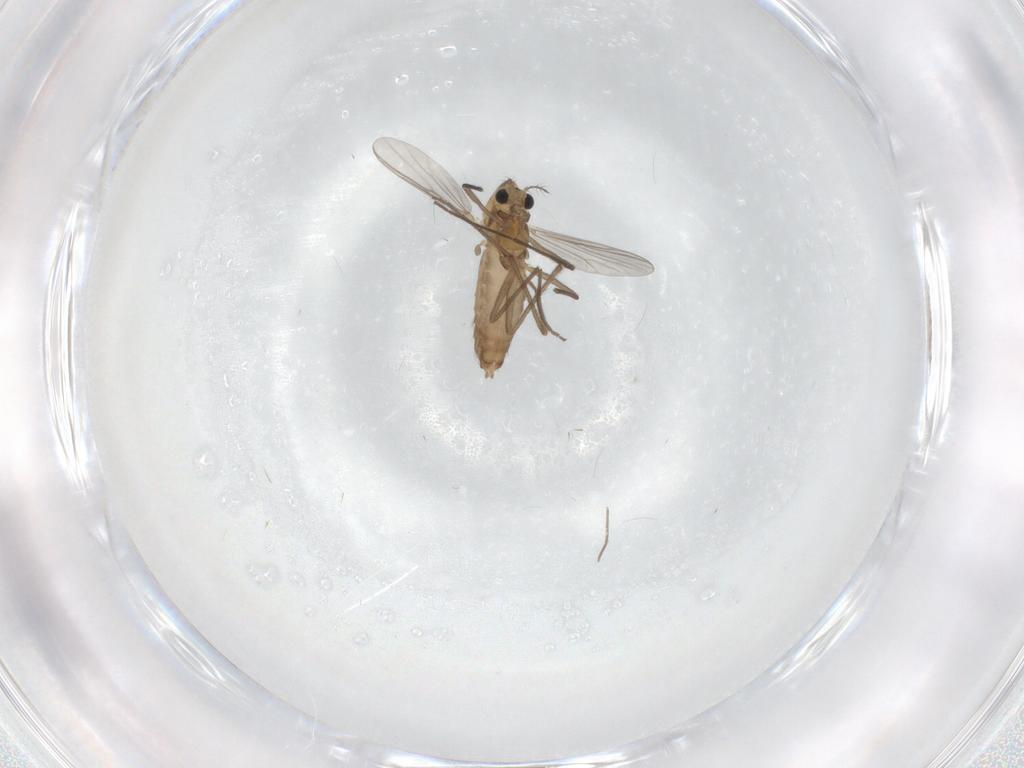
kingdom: Animalia
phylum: Arthropoda
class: Insecta
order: Diptera
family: Chironomidae
